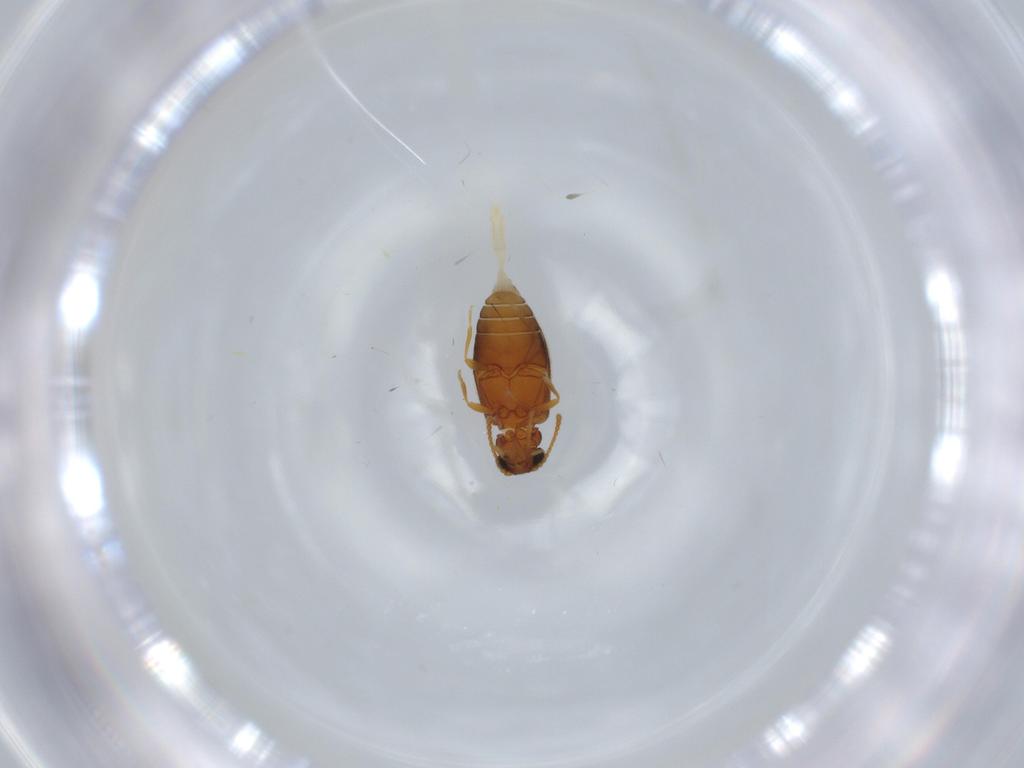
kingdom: Animalia
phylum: Arthropoda
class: Insecta
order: Coleoptera
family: Aderidae
